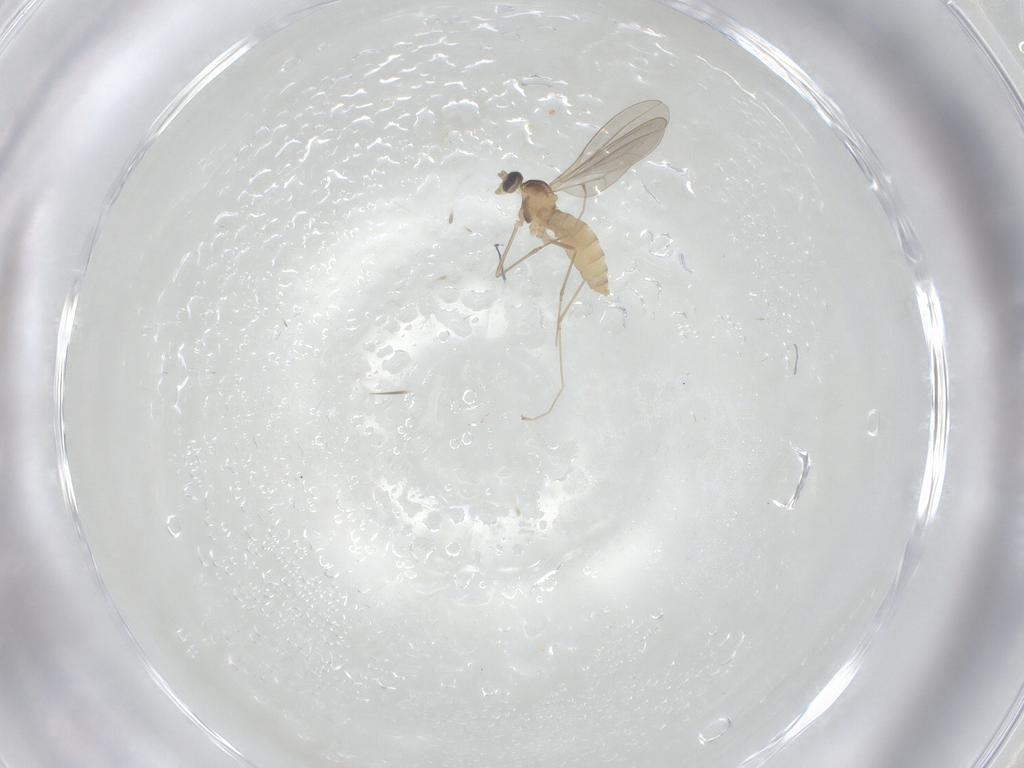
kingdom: Animalia
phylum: Arthropoda
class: Insecta
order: Diptera
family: Cecidomyiidae
